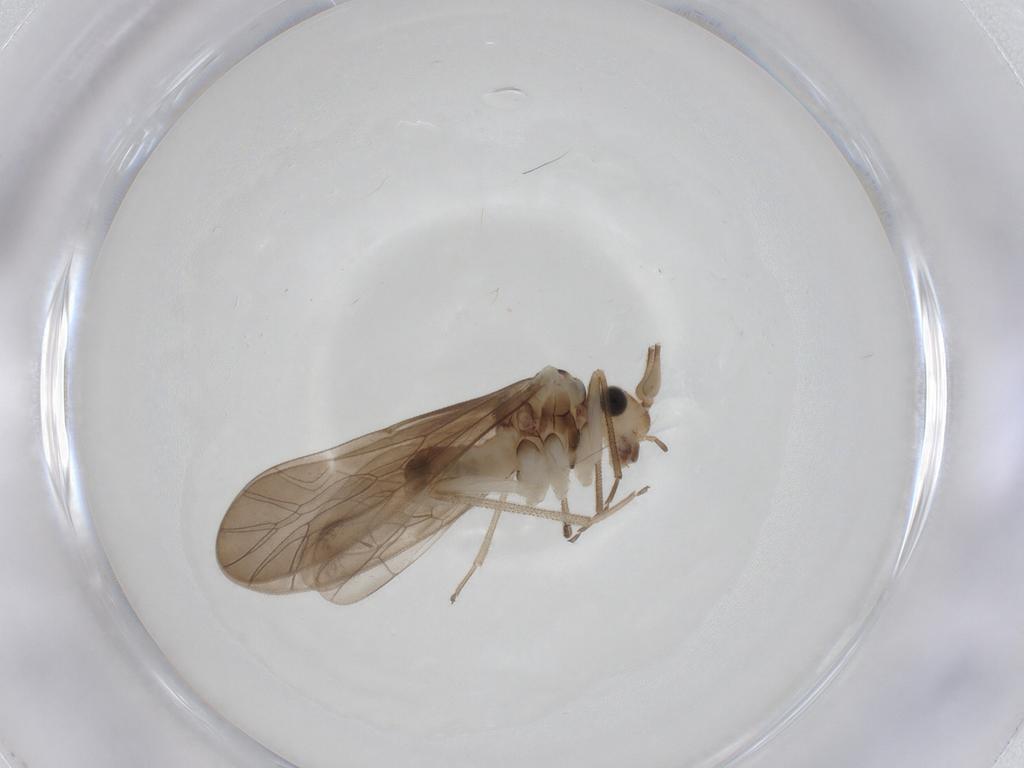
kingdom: Animalia
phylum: Arthropoda
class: Insecta
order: Psocodea
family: Caeciliusidae
